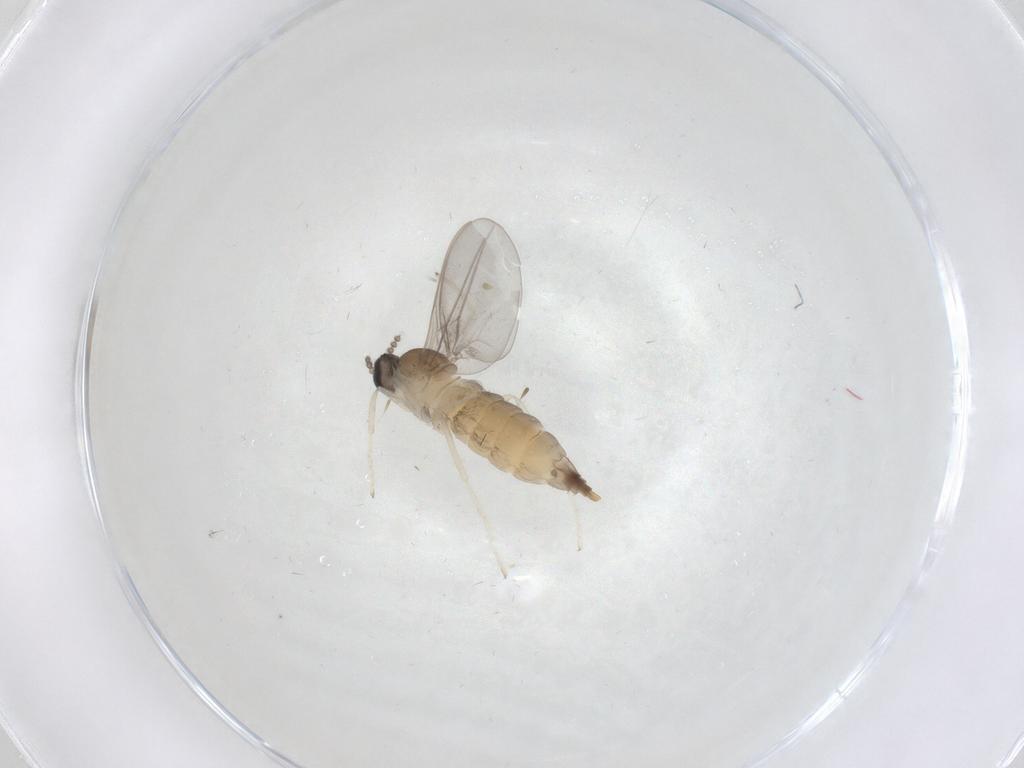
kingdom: Animalia
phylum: Arthropoda
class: Insecta
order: Diptera
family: Cecidomyiidae
